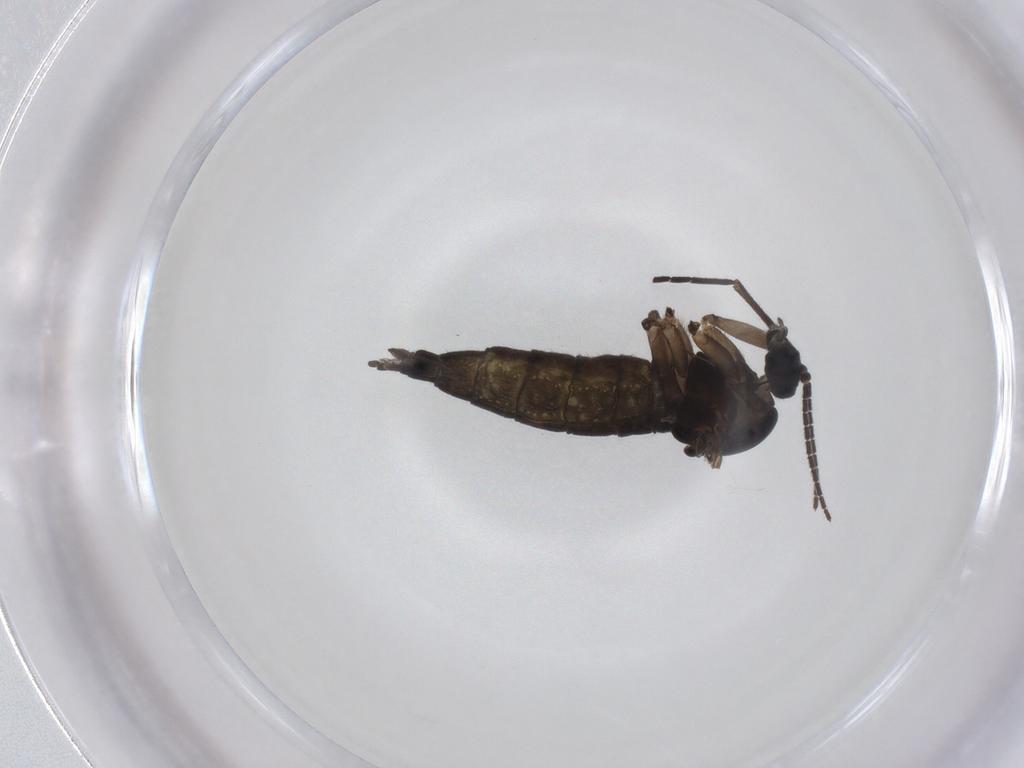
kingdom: Animalia
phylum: Arthropoda
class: Insecta
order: Diptera
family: Sciaridae
